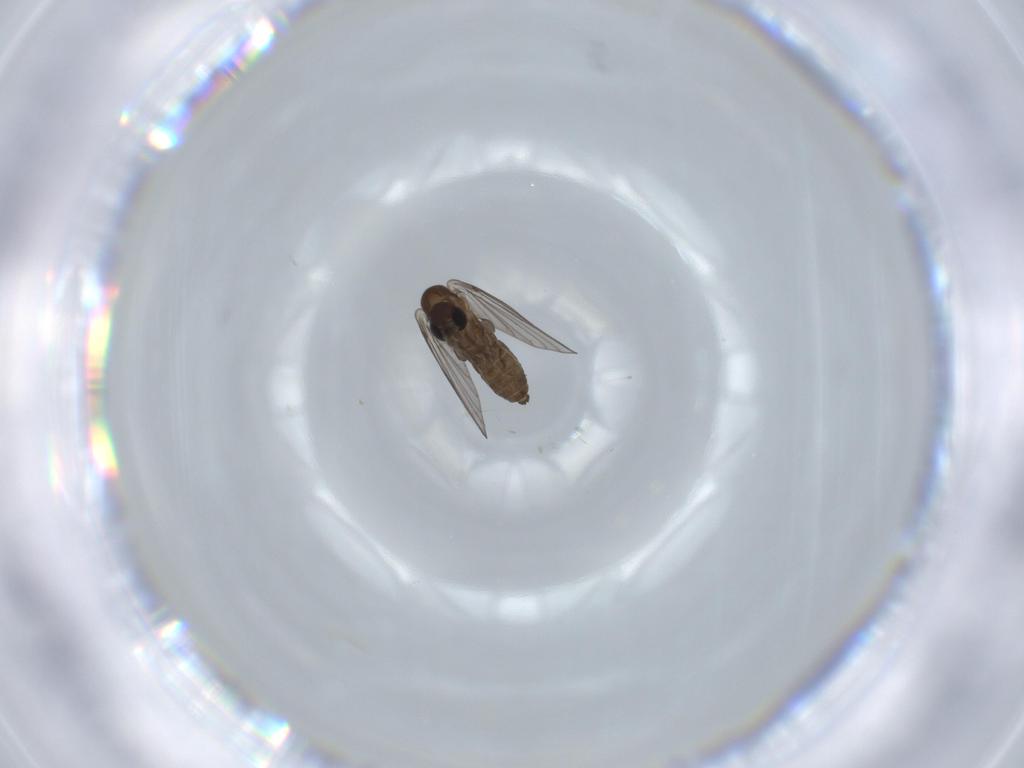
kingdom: Animalia
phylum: Arthropoda
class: Insecta
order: Diptera
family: Psychodidae
